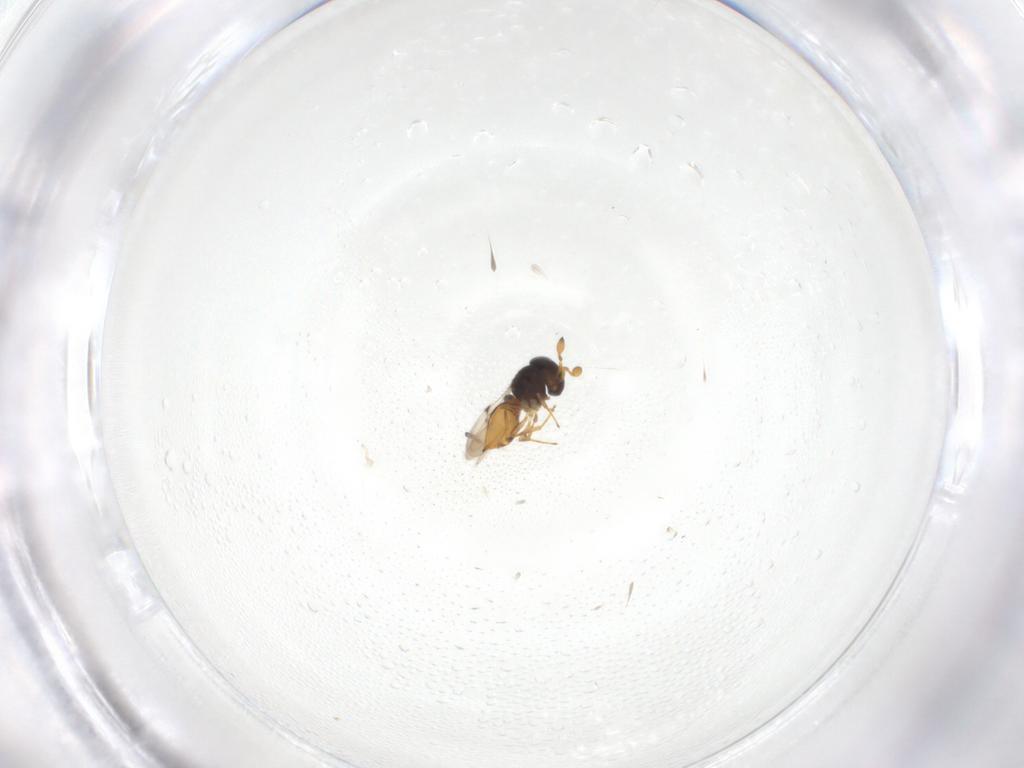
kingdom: Animalia
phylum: Arthropoda
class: Insecta
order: Hymenoptera
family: Scelionidae
